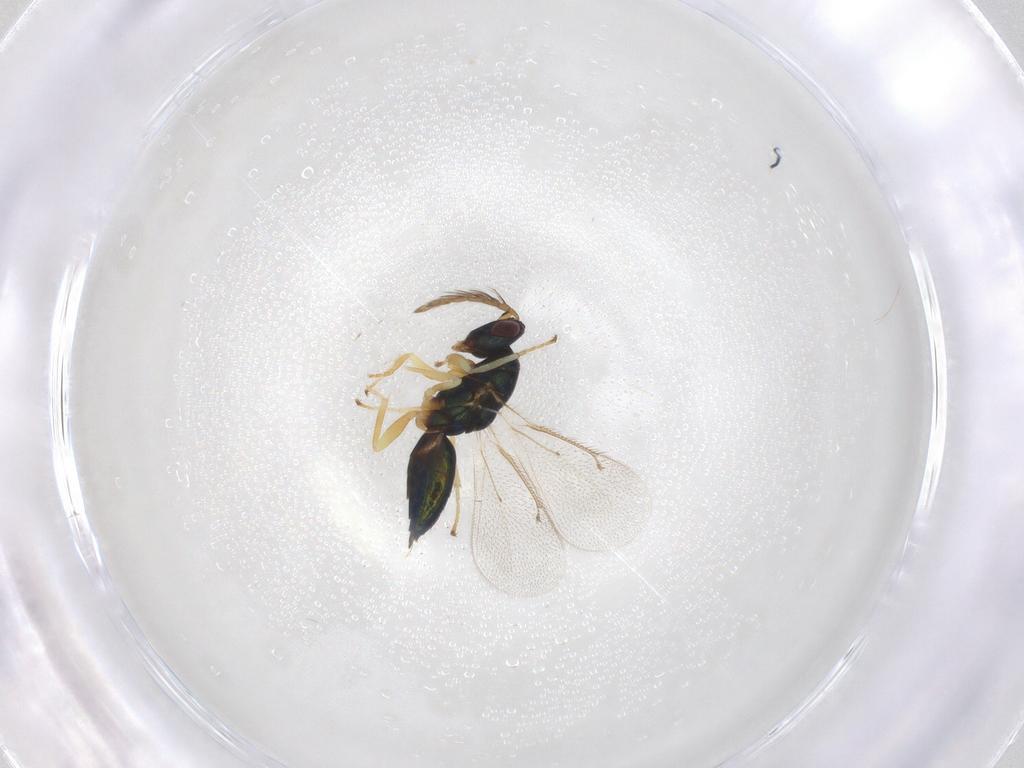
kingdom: Animalia
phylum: Arthropoda
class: Insecta
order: Hymenoptera
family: Eulophidae
